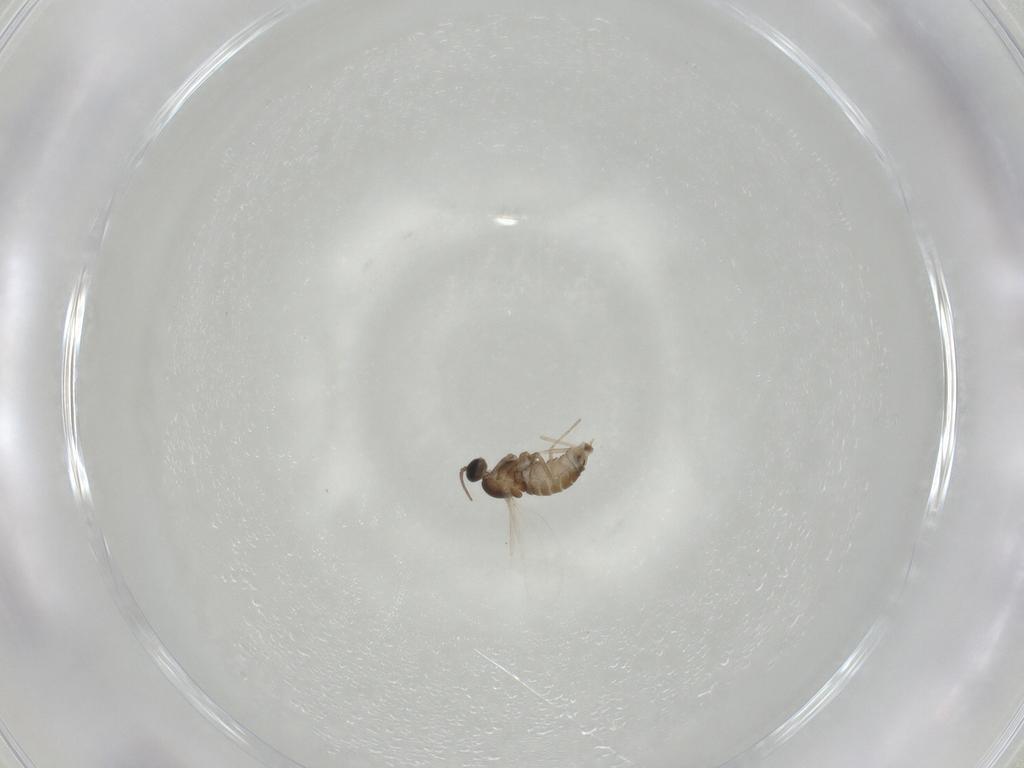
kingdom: Animalia
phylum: Arthropoda
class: Insecta
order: Diptera
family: Cecidomyiidae
